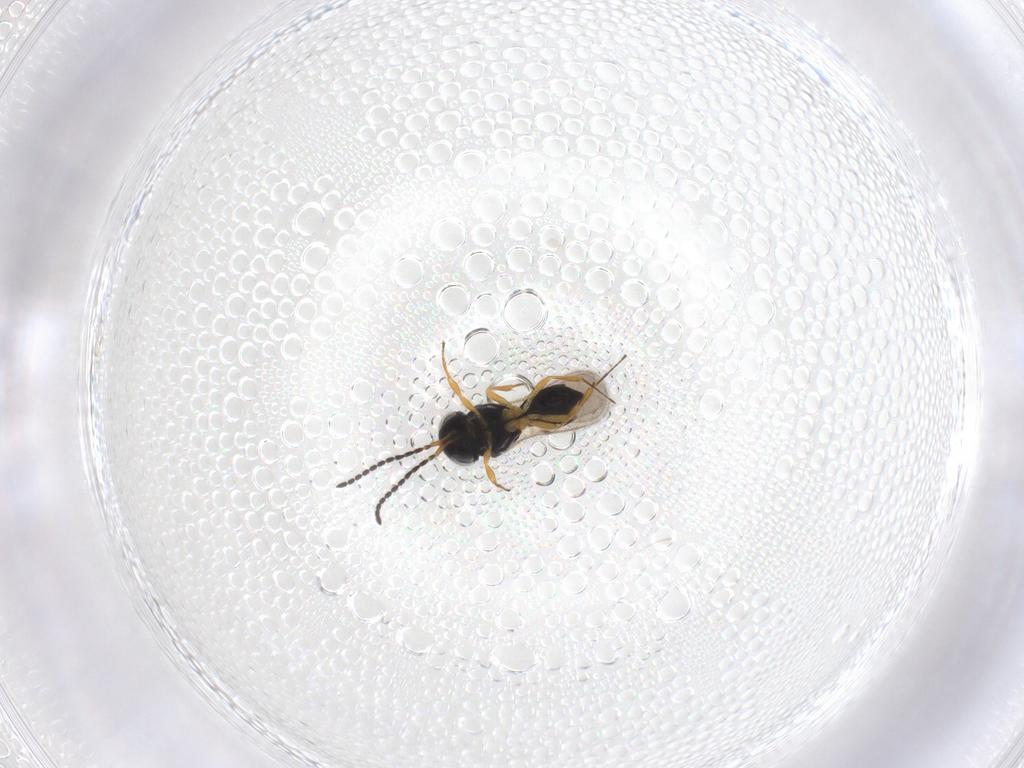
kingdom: Animalia
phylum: Arthropoda
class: Insecta
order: Hymenoptera
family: Scelionidae
